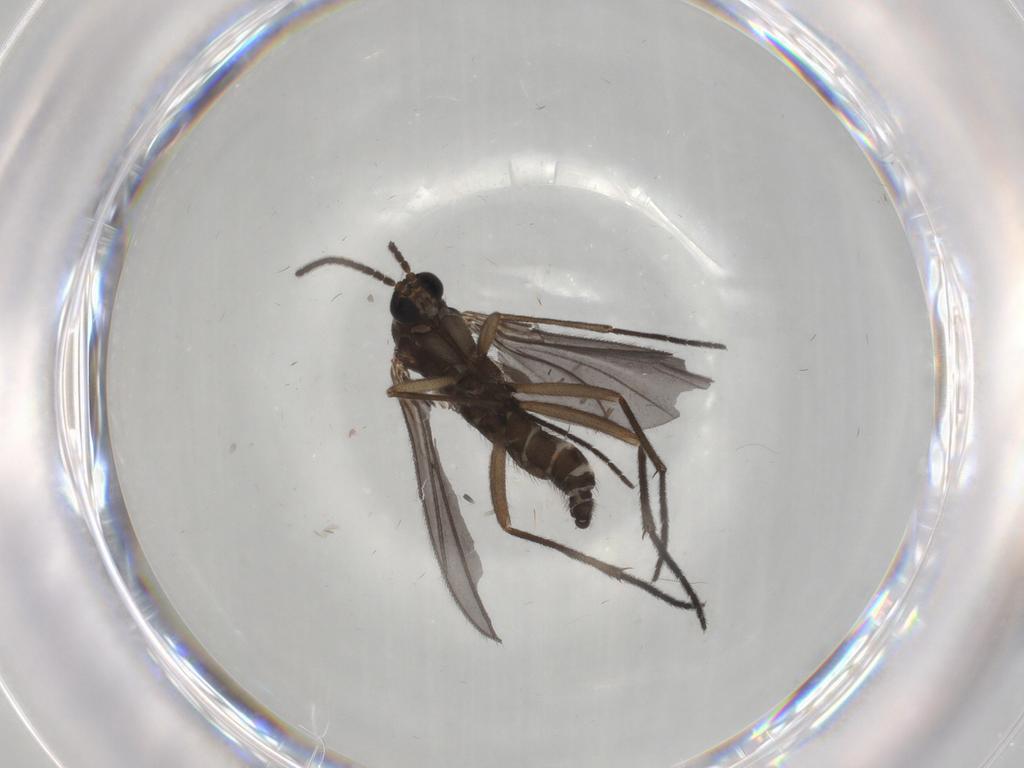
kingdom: Animalia
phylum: Arthropoda
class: Insecta
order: Diptera
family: Sciaridae
